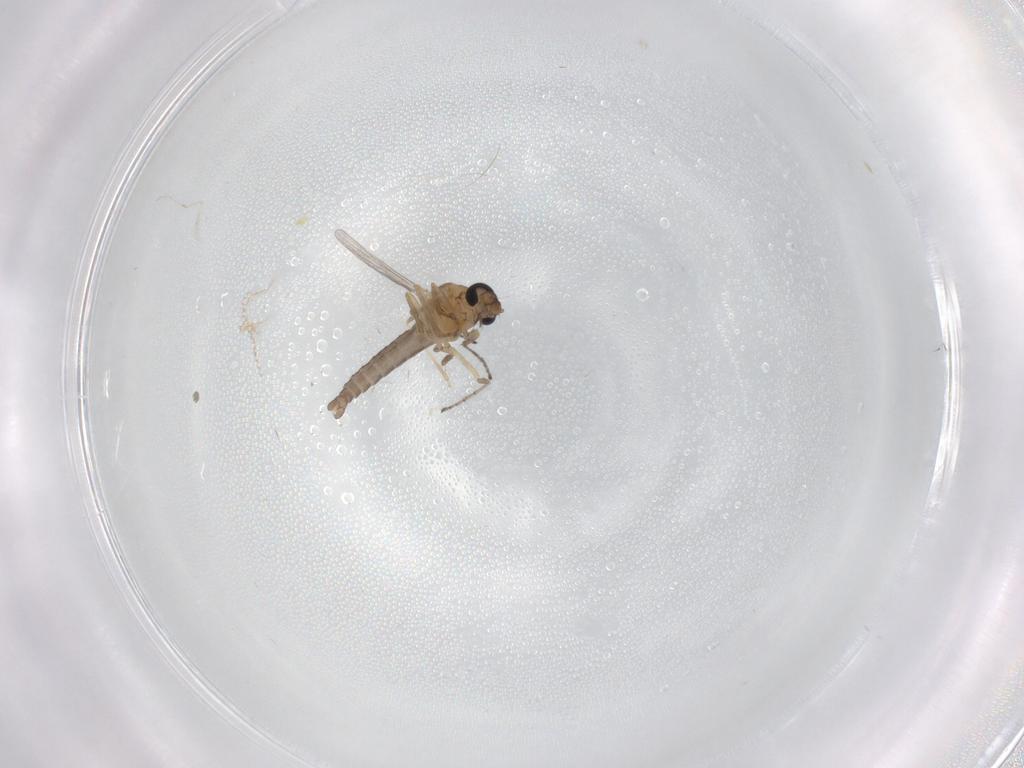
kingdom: Animalia
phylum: Arthropoda
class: Insecta
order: Diptera
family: Ceratopogonidae
